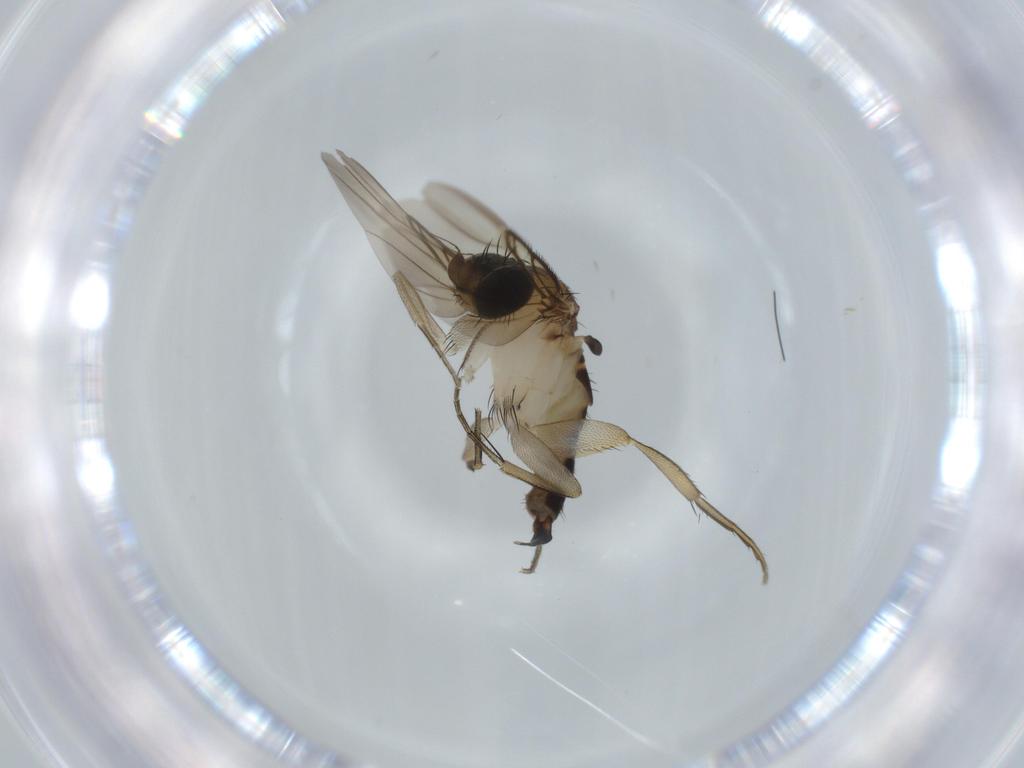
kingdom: Animalia
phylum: Arthropoda
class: Insecta
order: Diptera
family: Phoridae
